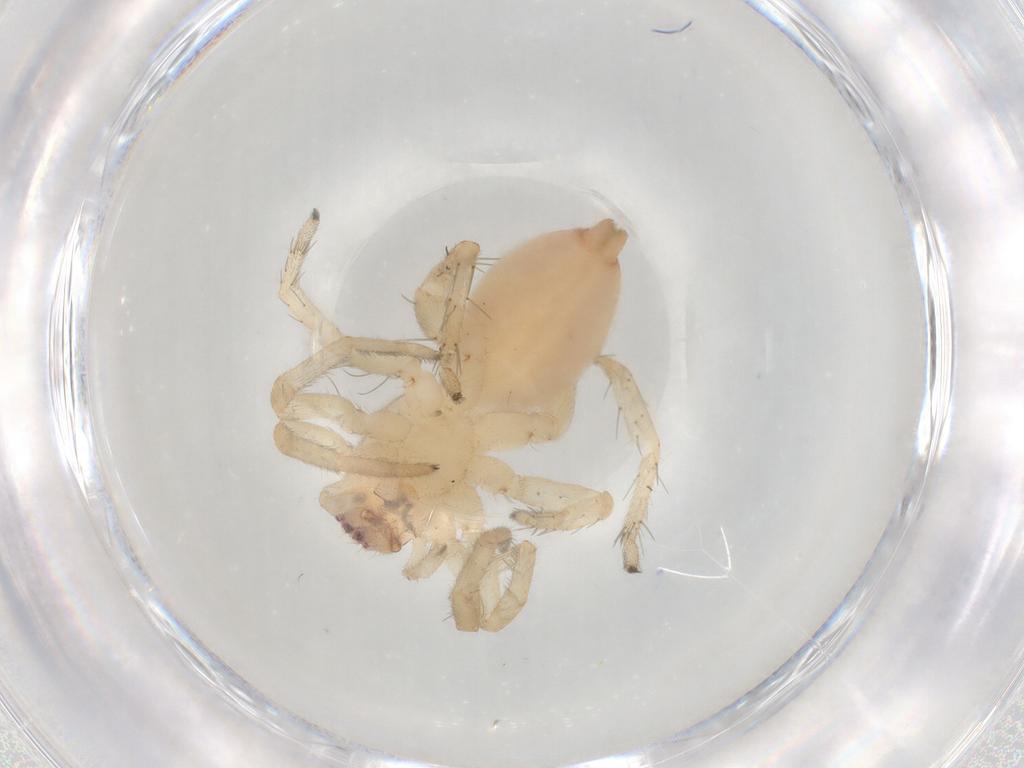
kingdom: Animalia
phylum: Arthropoda
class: Arachnida
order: Araneae
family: Clubionidae
